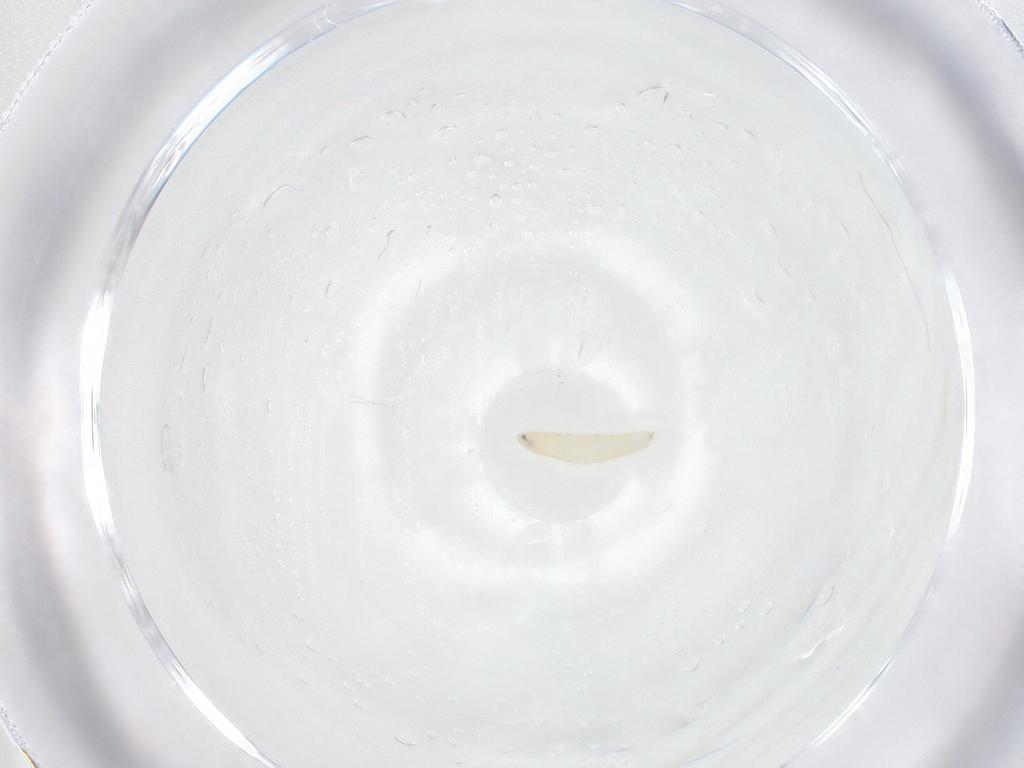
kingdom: Animalia
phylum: Arthropoda
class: Insecta
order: Diptera
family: Tachinidae
